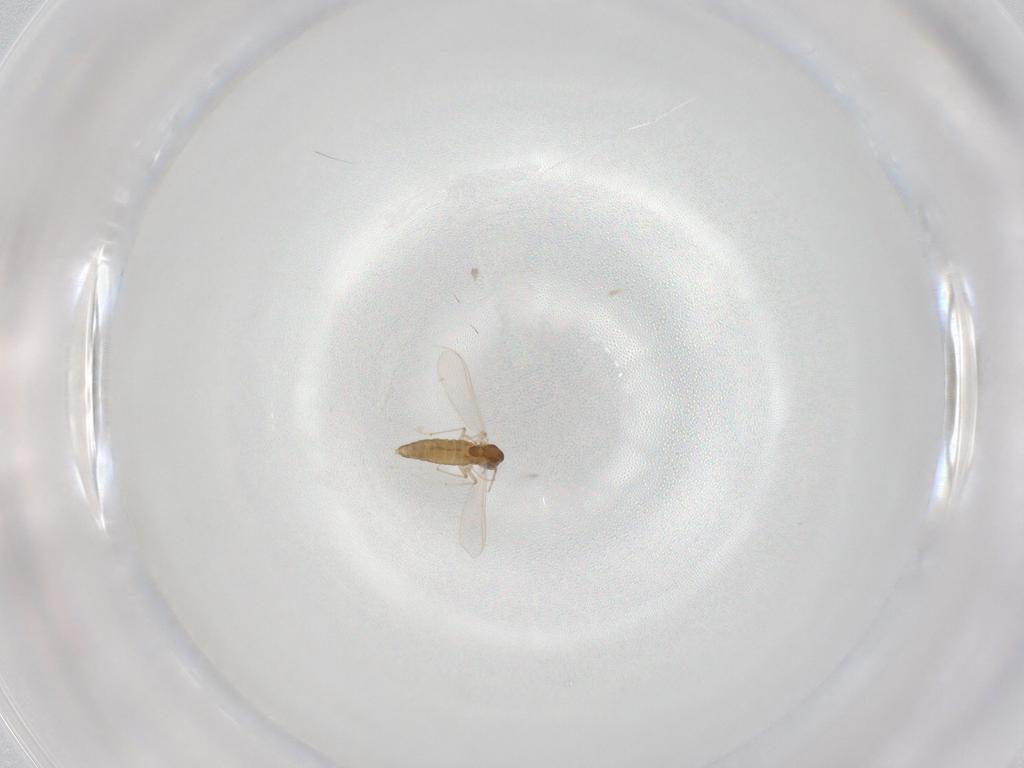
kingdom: Animalia
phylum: Arthropoda
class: Insecta
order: Diptera
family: Chironomidae
